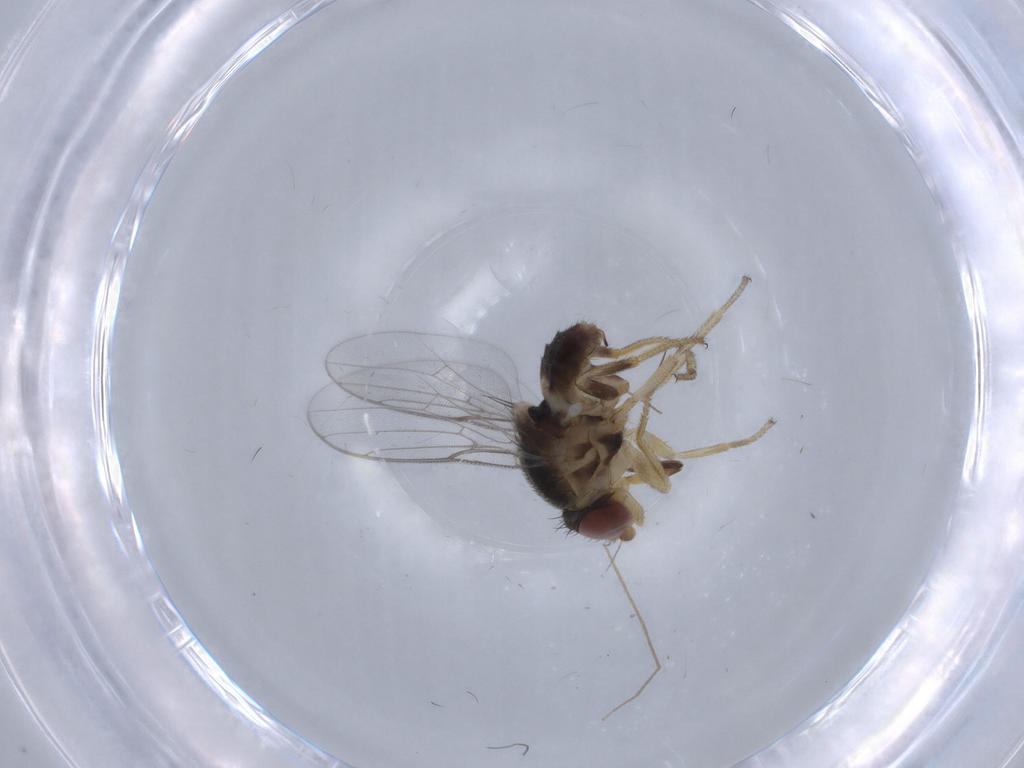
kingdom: Animalia
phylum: Arthropoda
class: Insecta
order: Diptera
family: Chloropidae
